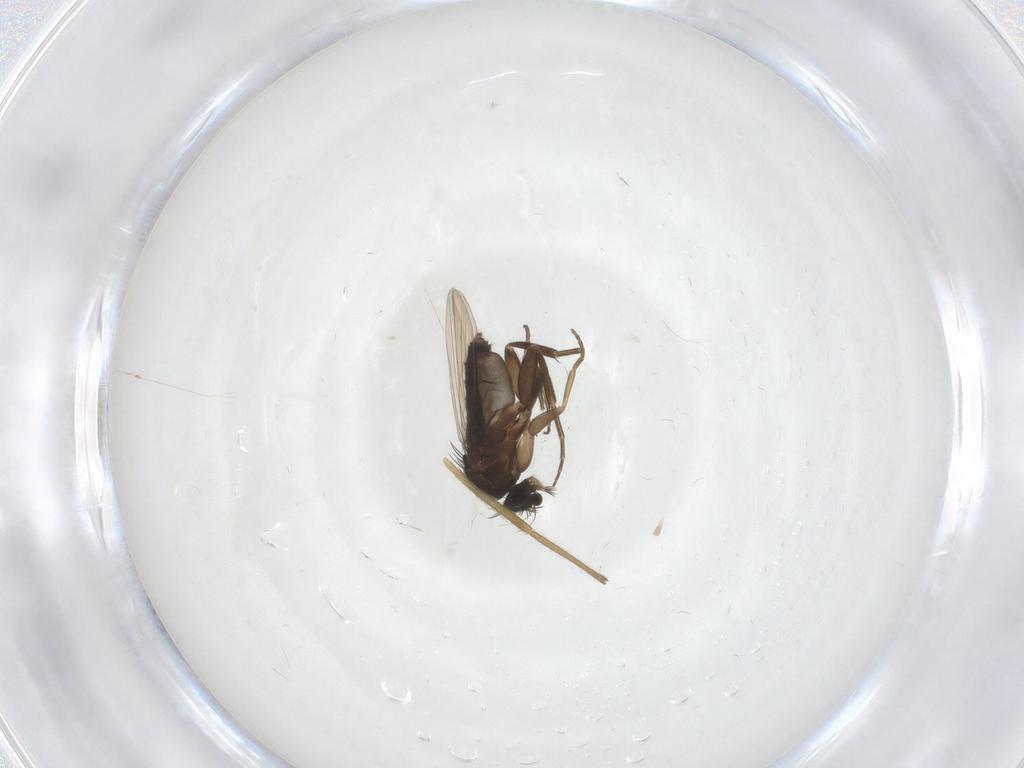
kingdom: Animalia
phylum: Arthropoda
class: Insecta
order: Diptera
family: Phoridae
